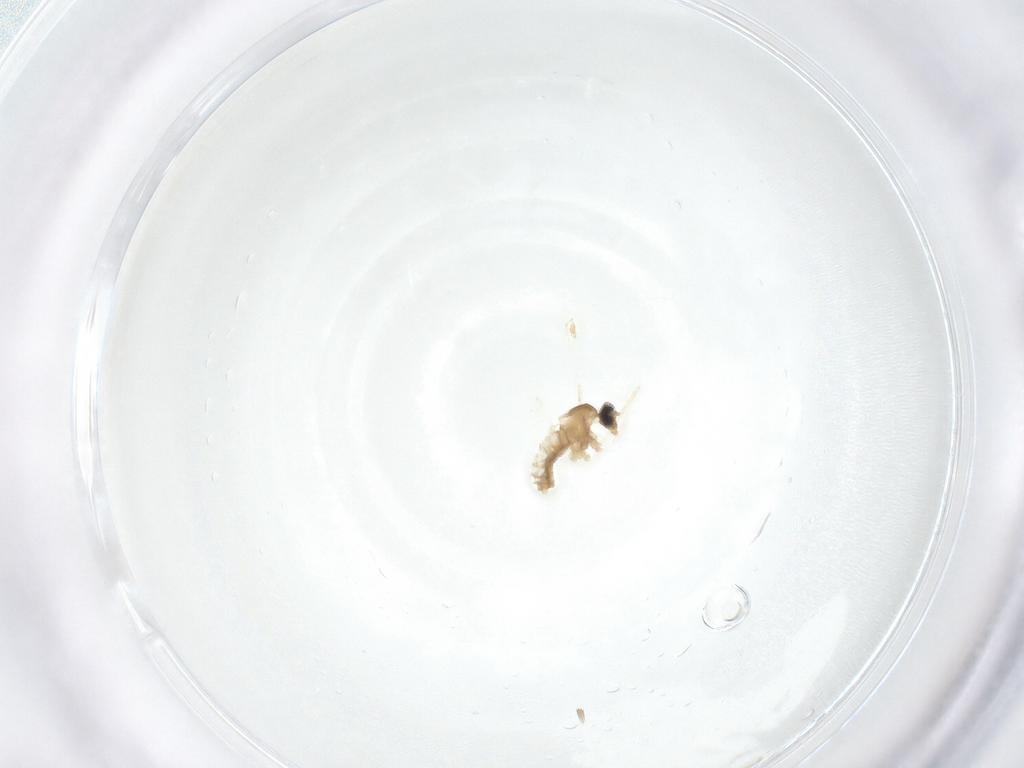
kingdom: Animalia
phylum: Arthropoda
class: Insecta
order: Diptera
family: Cecidomyiidae
